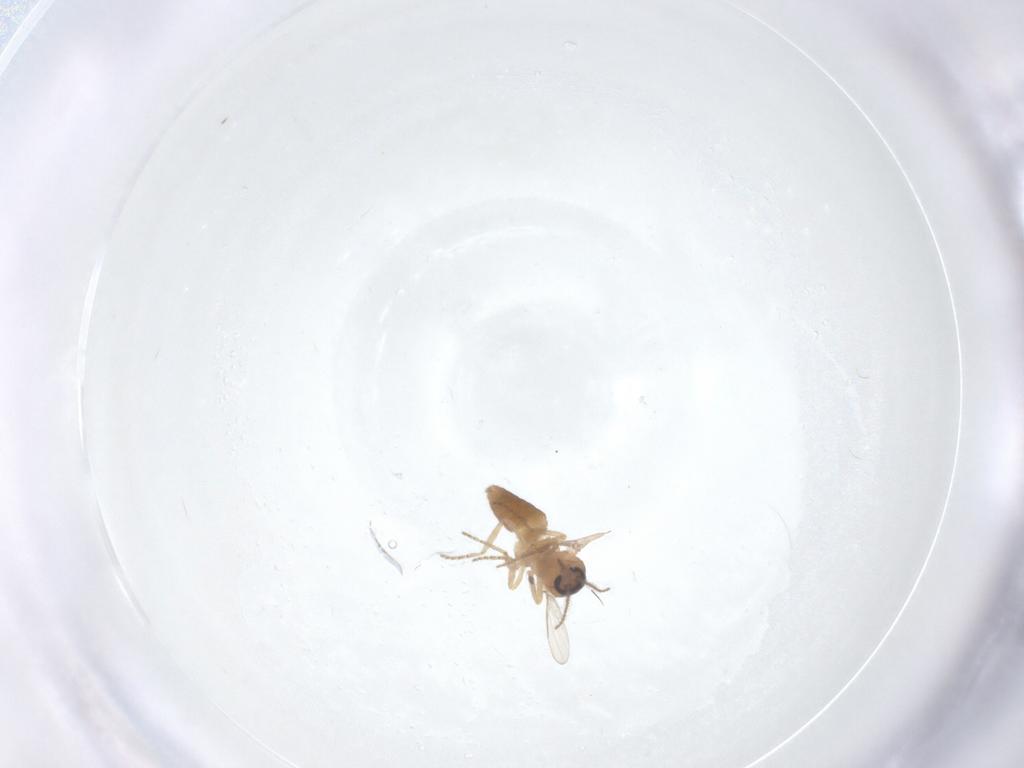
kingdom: Animalia
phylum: Arthropoda
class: Insecta
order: Diptera
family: Ceratopogonidae
